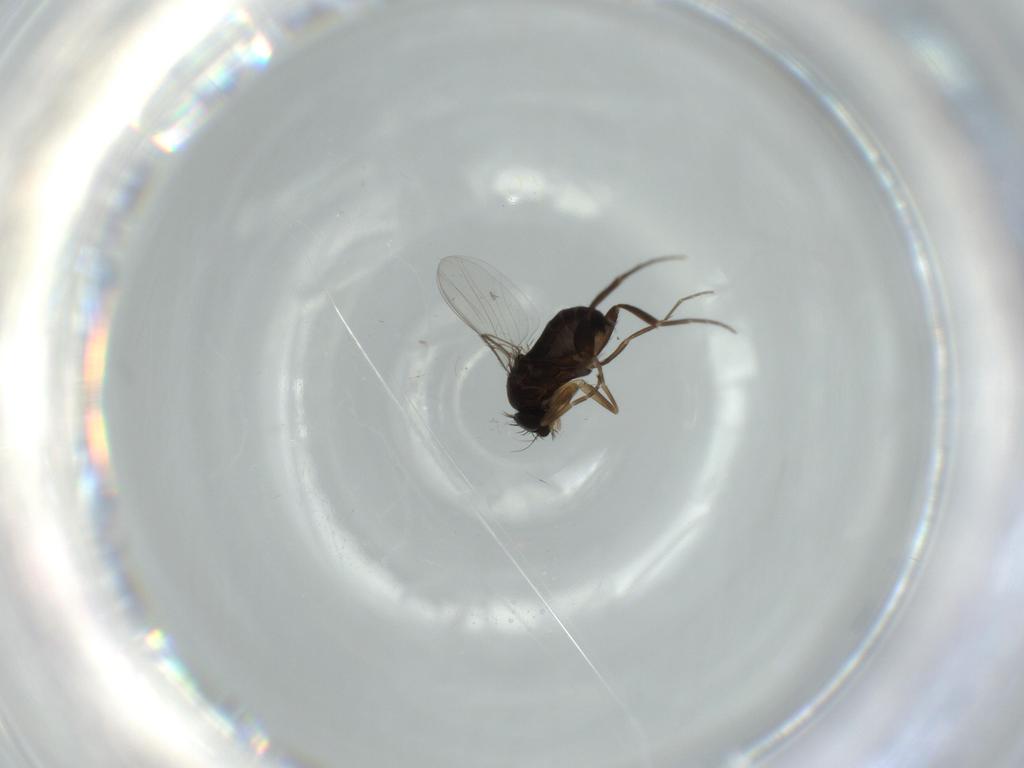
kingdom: Animalia
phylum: Arthropoda
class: Insecta
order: Diptera
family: Phoridae
